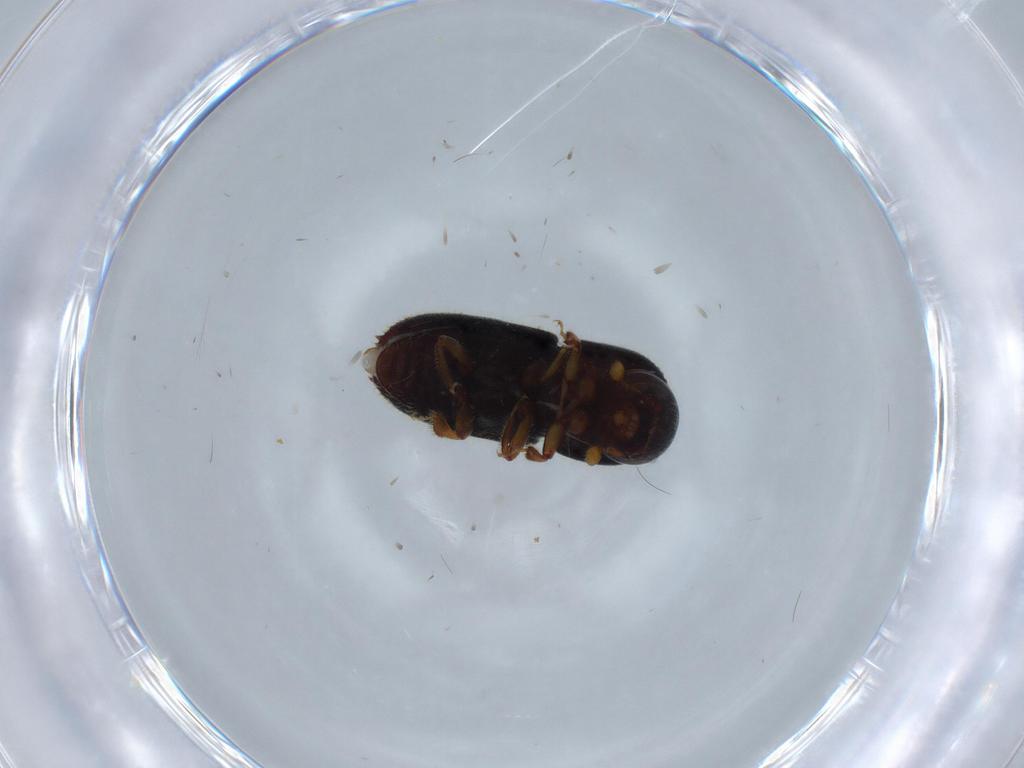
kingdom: Animalia
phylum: Arthropoda
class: Insecta
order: Coleoptera
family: Curculionidae
